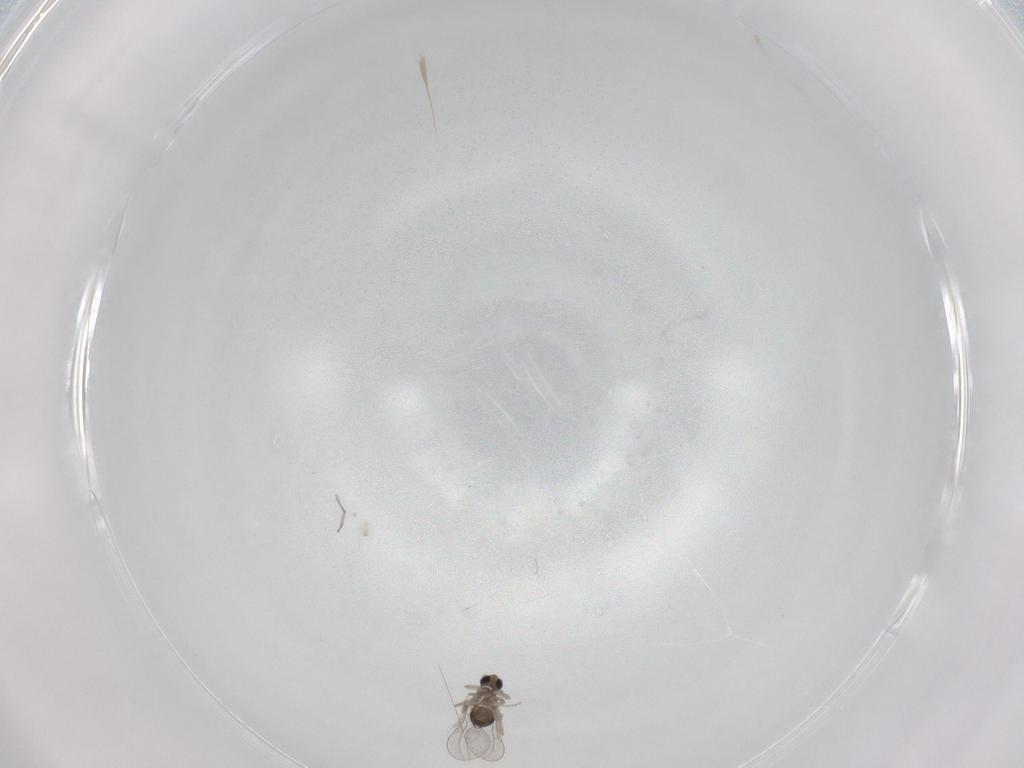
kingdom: Animalia
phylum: Arthropoda
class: Insecta
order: Diptera
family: Cecidomyiidae
